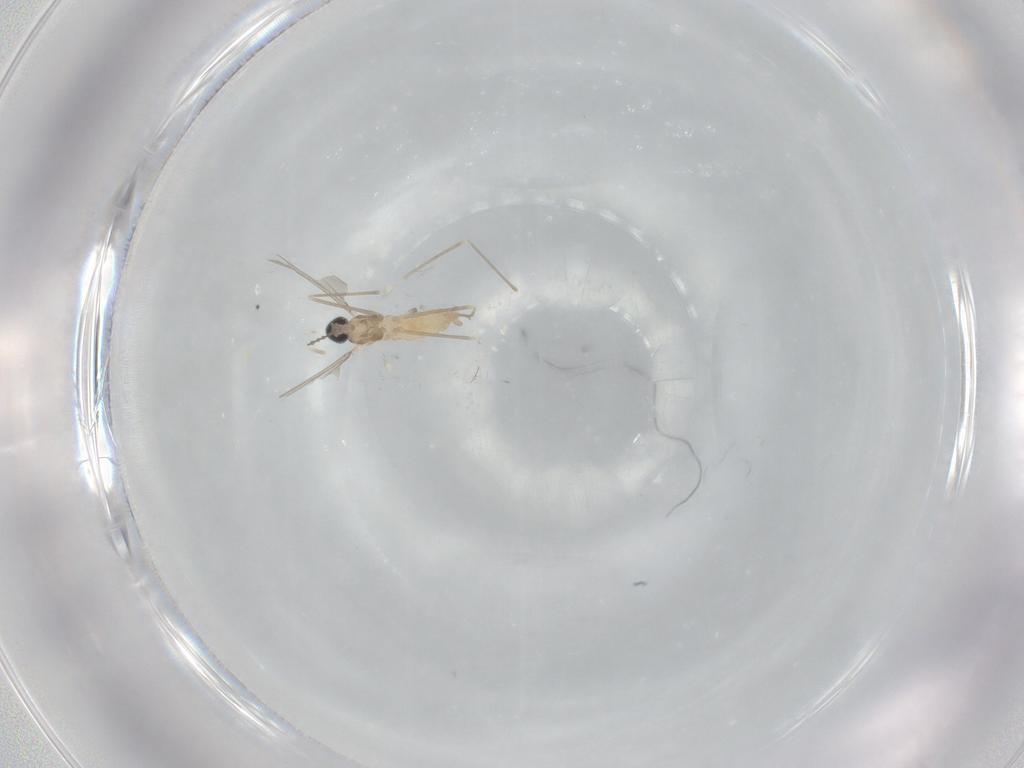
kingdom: Animalia
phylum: Arthropoda
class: Insecta
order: Diptera
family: Cecidomyiidae
